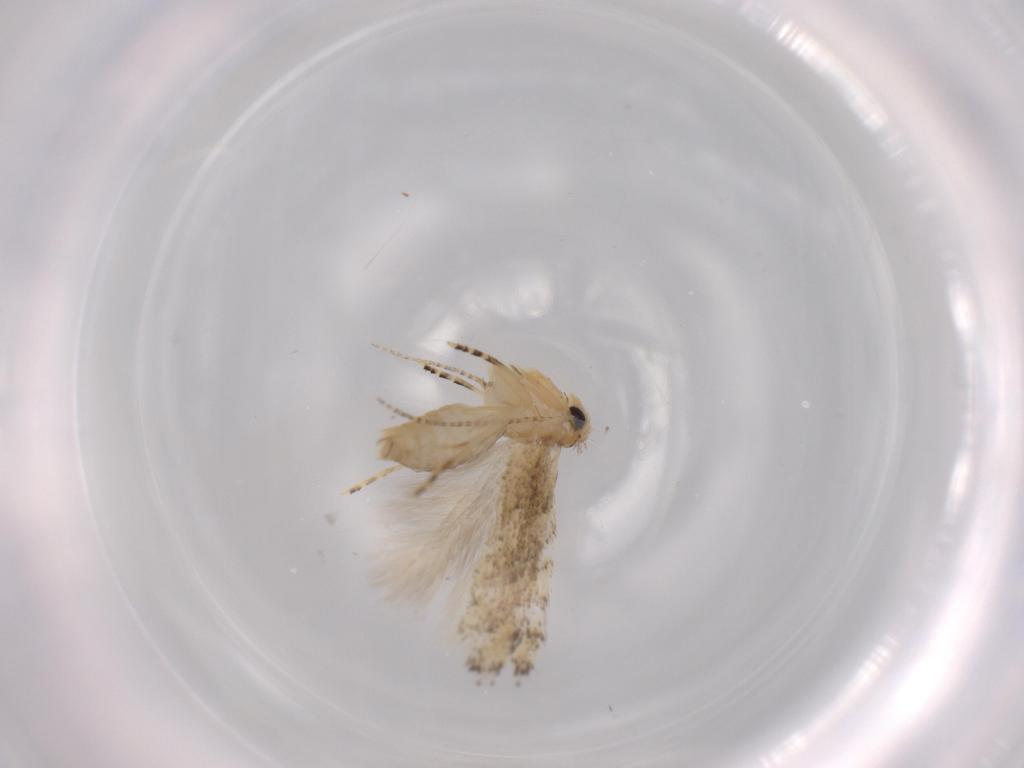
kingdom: Animalia
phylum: Arthropoda
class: Insecta
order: Lepidoptera
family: Bucculatricidae
